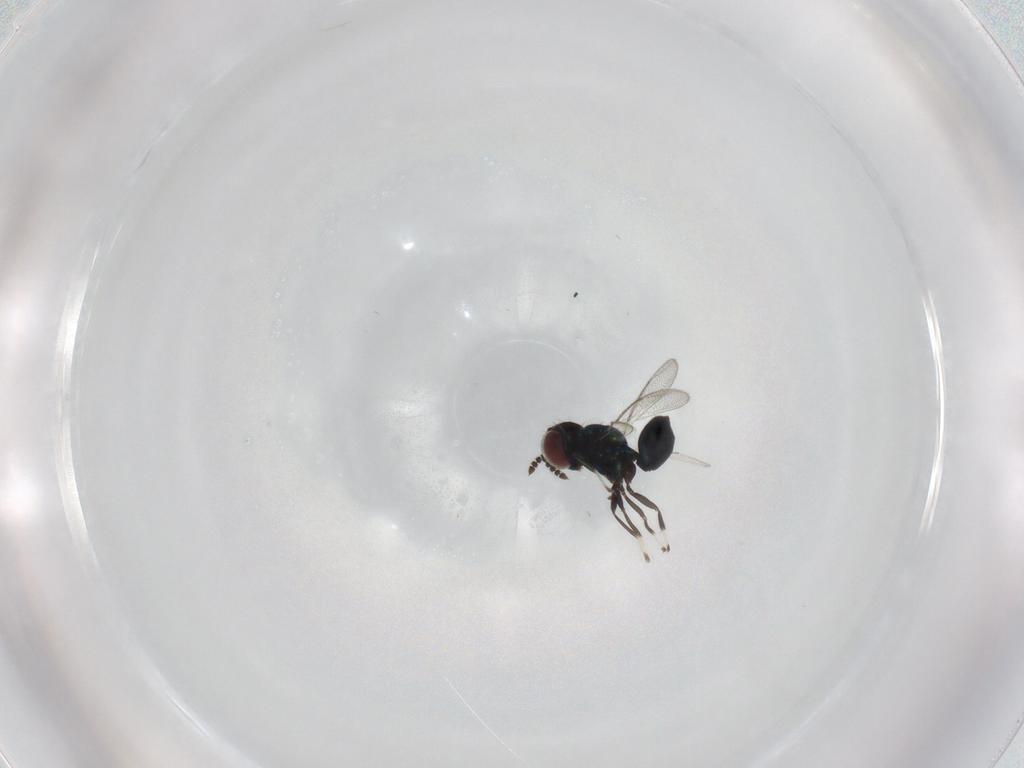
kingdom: Animalia
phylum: Arthropoda
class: Insecta
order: Hymenoptera
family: Eulophidae
